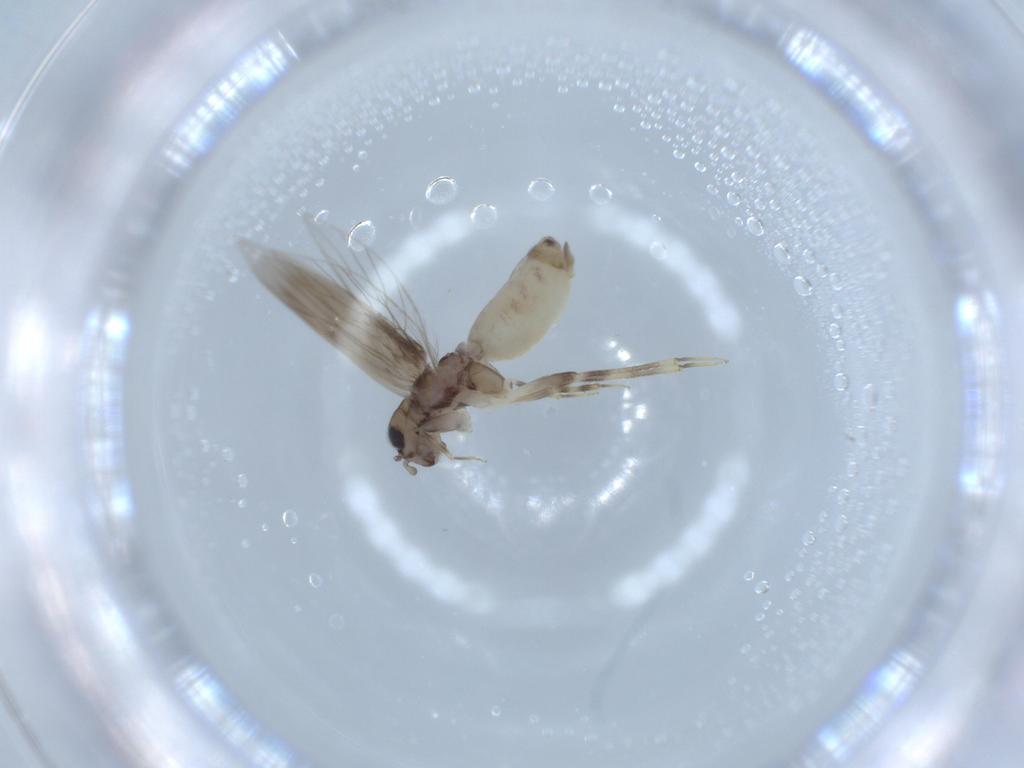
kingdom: Animalia
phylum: Arthropoda
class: Insecta
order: Psocodea
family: Lepidopsocidae
